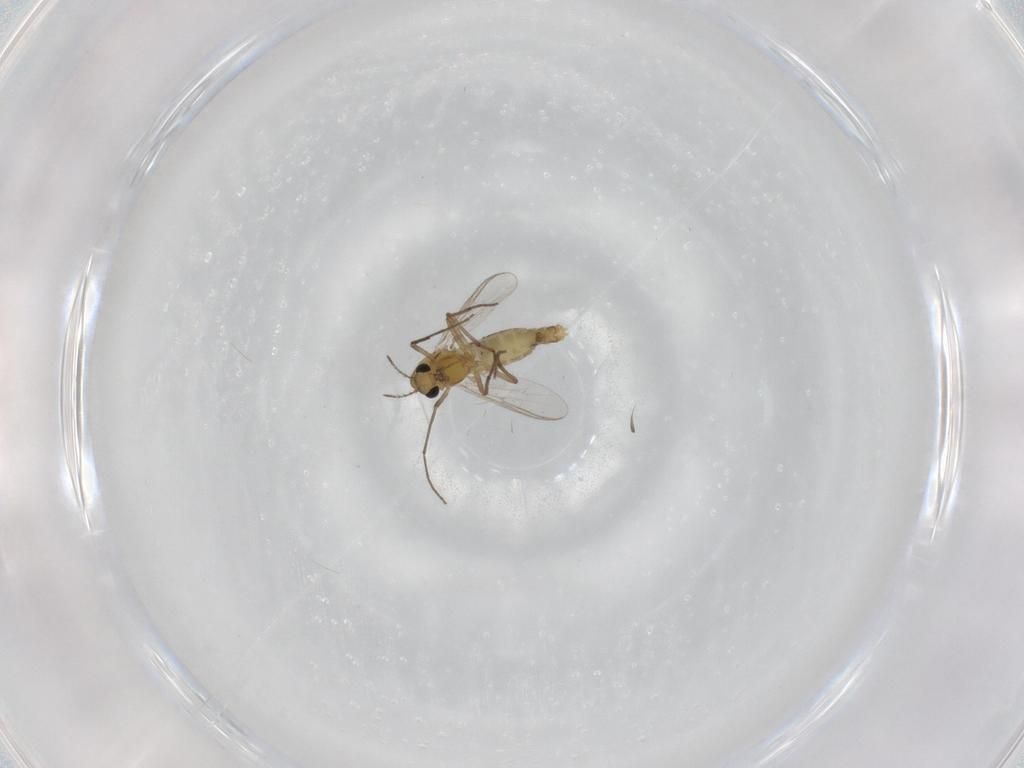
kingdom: Animalia
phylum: Arthropoda
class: Insecta
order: Diptera
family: Chironomidae
